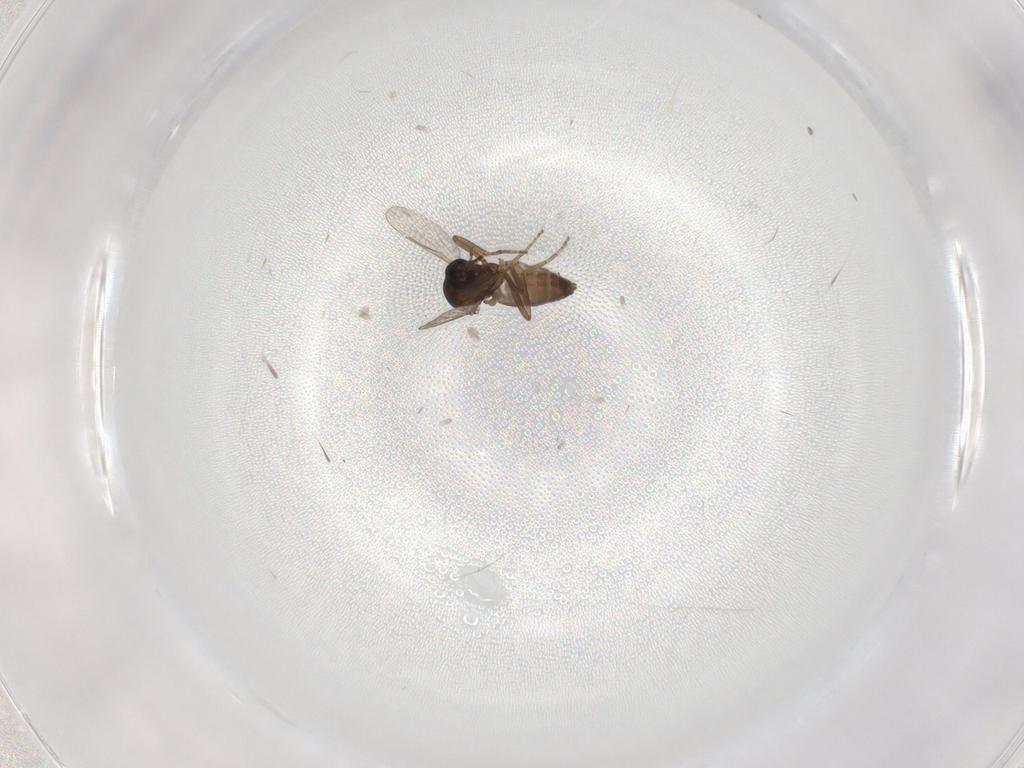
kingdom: Animalia
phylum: Arthropoda
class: Insecta
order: Diptera
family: Ceratopogonidae
